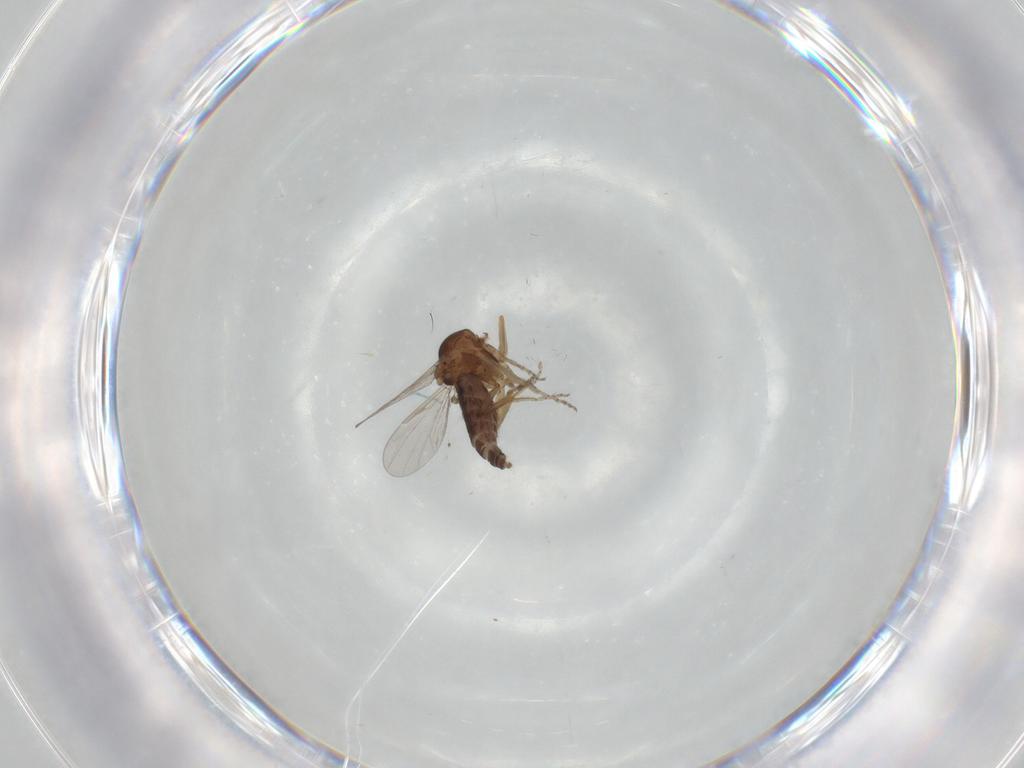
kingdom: Animalia
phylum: Arthropoda
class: Insecta
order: Diptera
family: Ceratopogonidae
